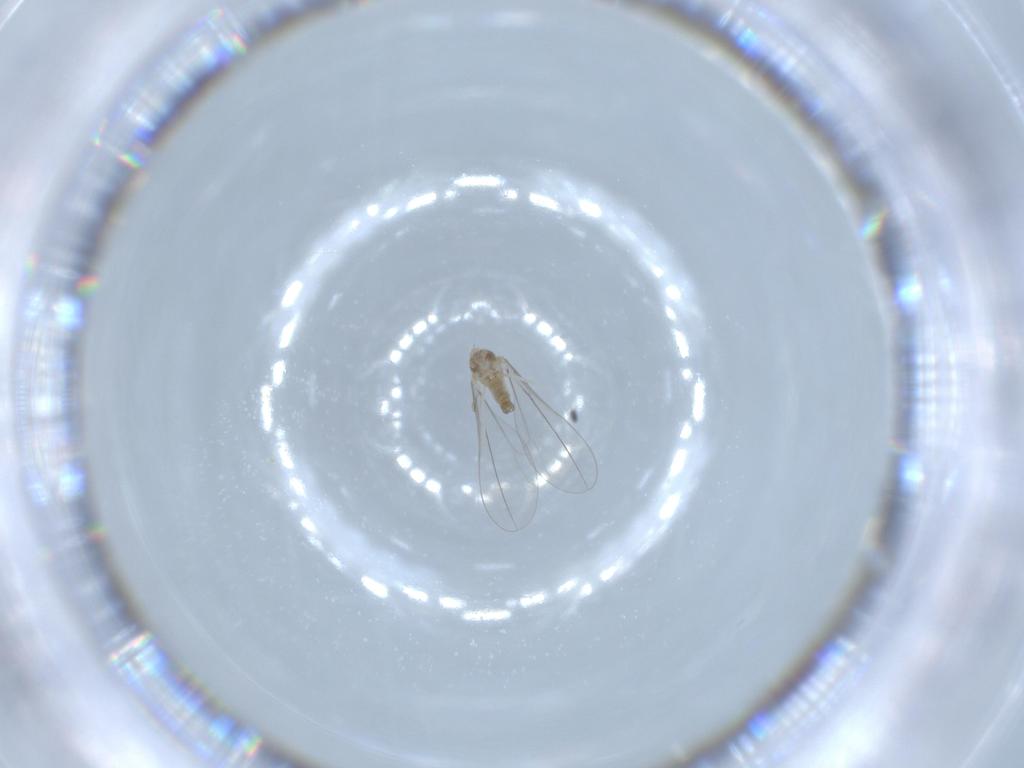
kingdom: Animalia
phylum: Arthropoda
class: Insecta
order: Diptera
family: Cecidomyiidae
